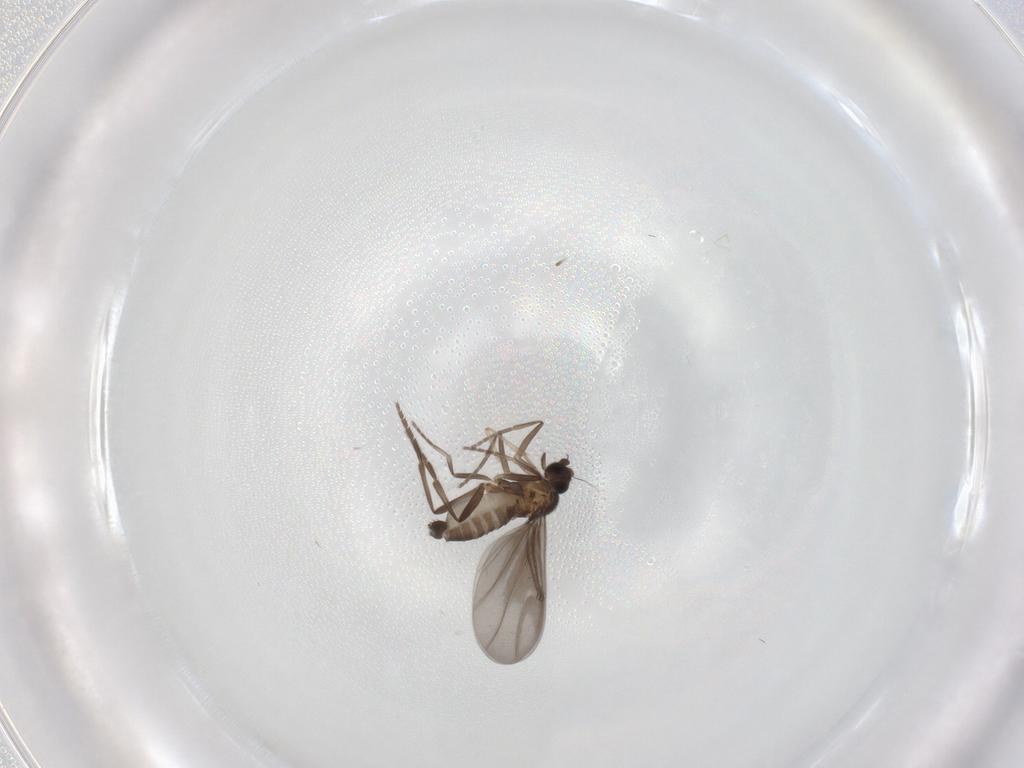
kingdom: Animalia
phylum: Arthropoda
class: Insecta
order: Diptera
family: Phoridae
